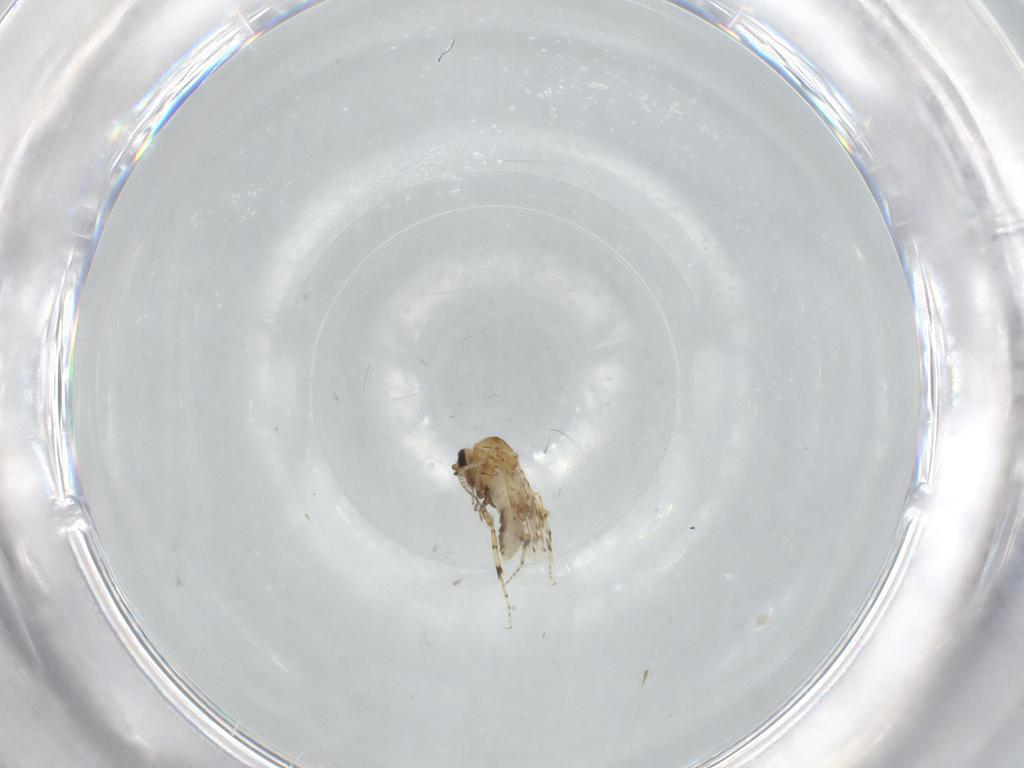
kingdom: Animalia
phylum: Arthropoda
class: Insecta
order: Diptera
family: Ceratopogonidae
